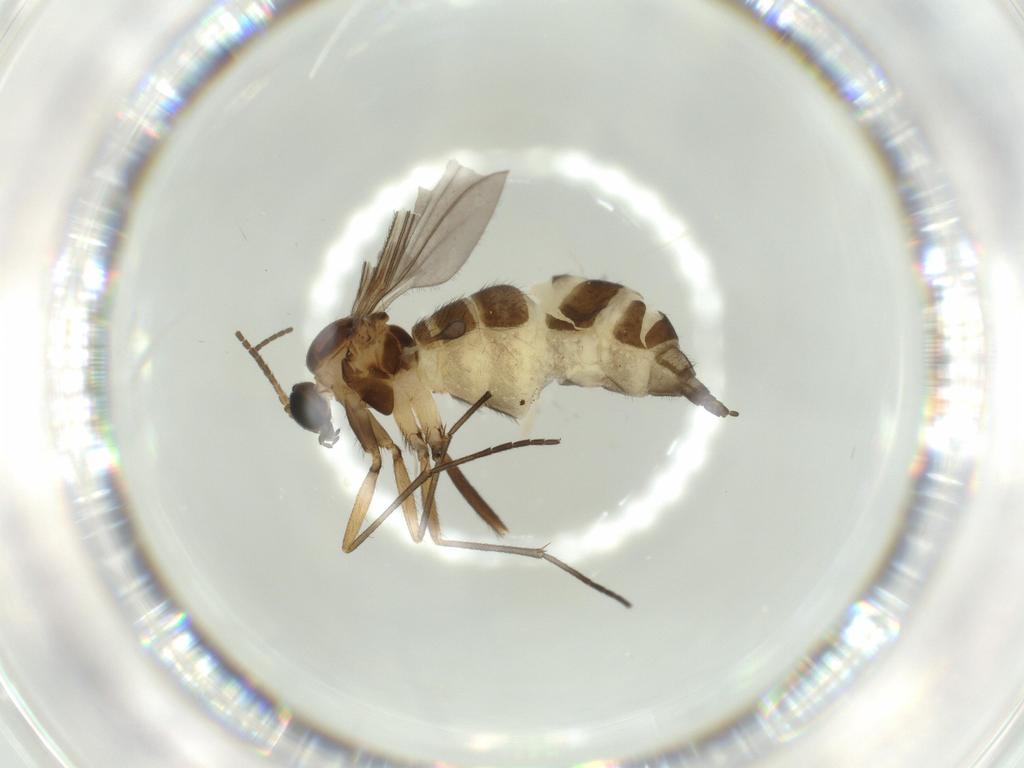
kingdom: Animalia
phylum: Arthropoda
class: Insecta
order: Diptera
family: Sciaridae
